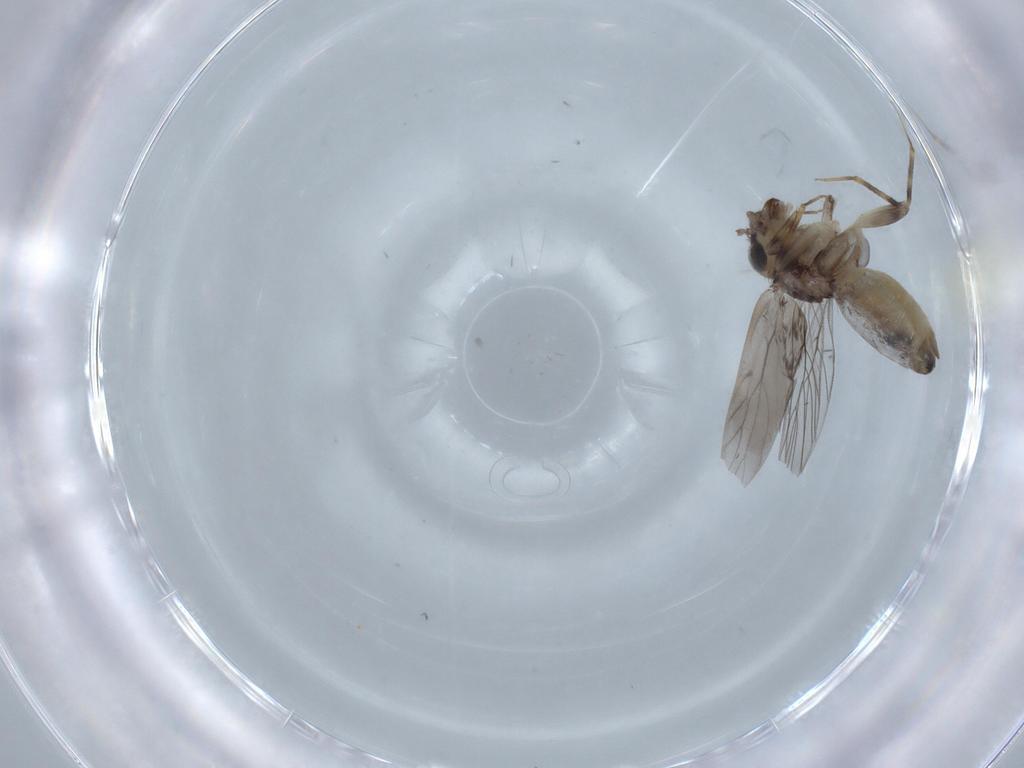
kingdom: Animalia
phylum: Arthropoda
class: Insecta
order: Psocodea
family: Lepidopsocidae
